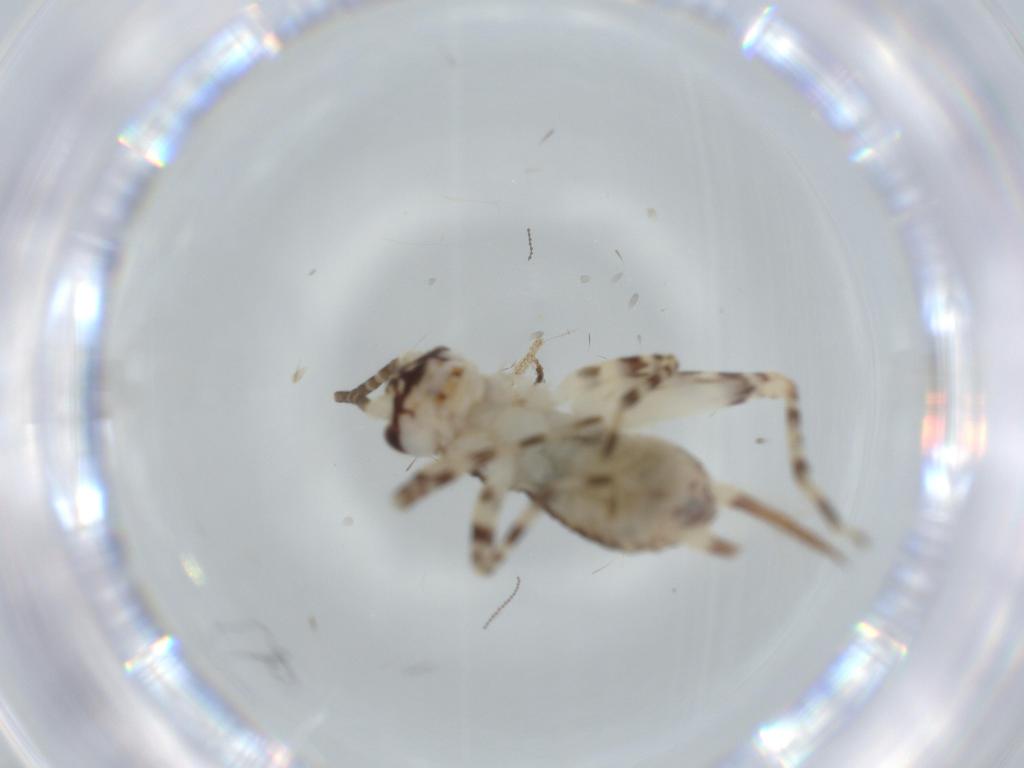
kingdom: Animalia
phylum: Arthropoda
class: Insecta
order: Orthoptera
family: Gryllidae
